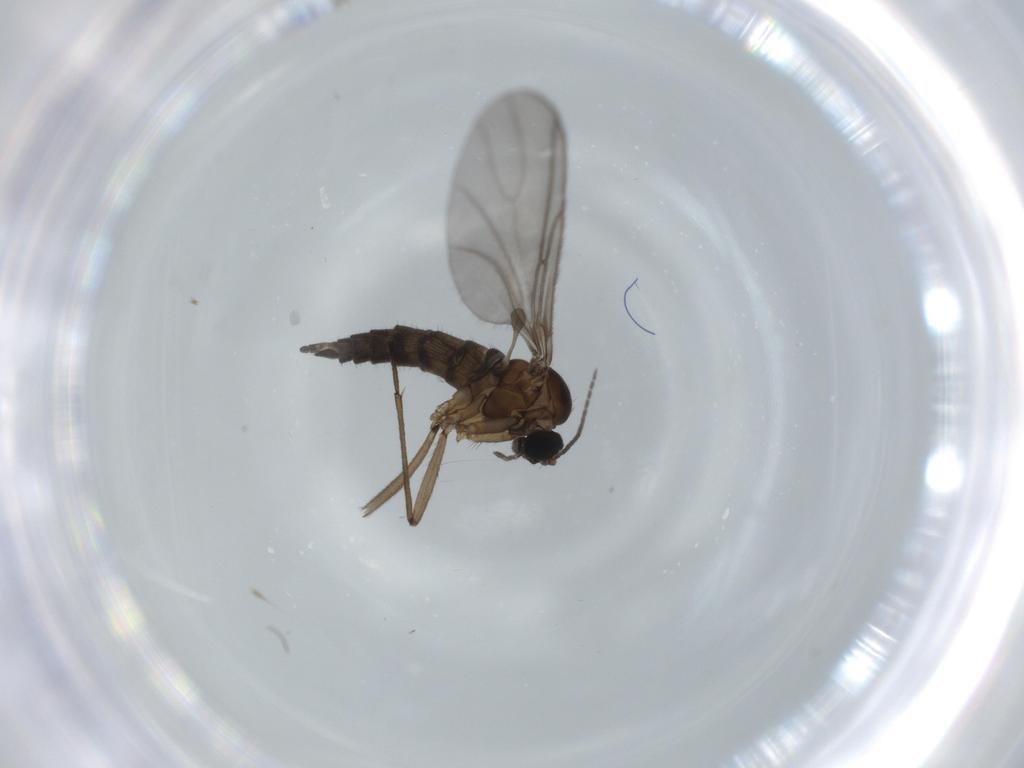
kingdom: Animalia
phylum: Arthropoda
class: Insecta
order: Diptera
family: Sciaridae
